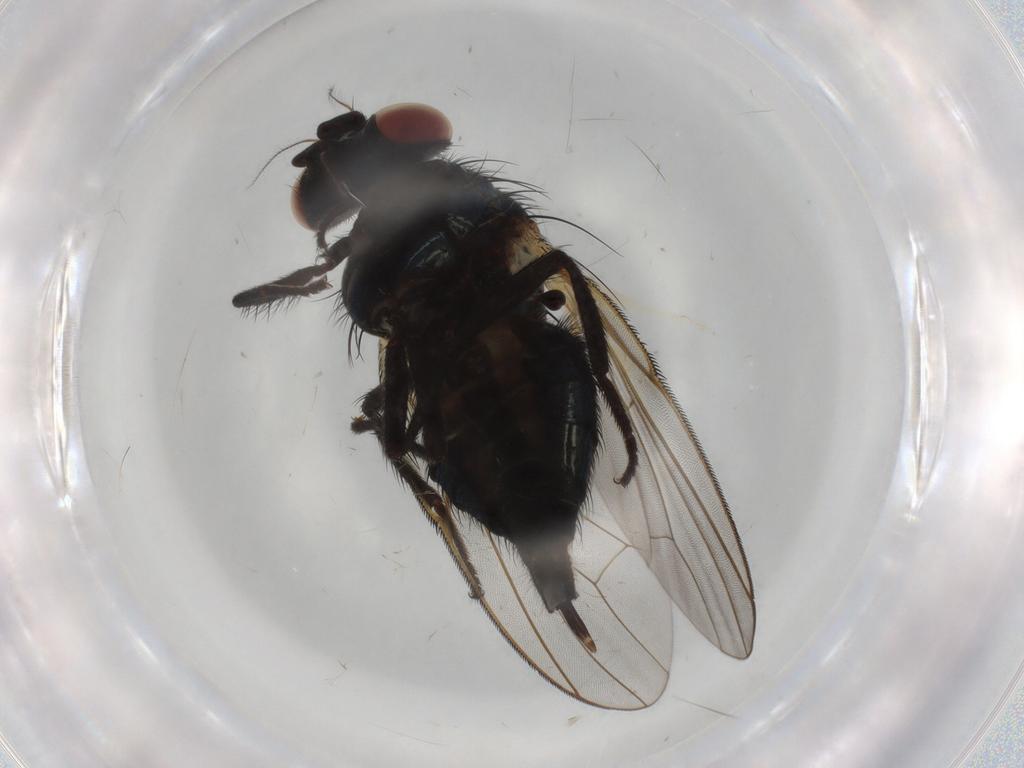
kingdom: Animalia
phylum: Arthropoda
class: Insecta
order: Diptera
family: Lonchaeidae
